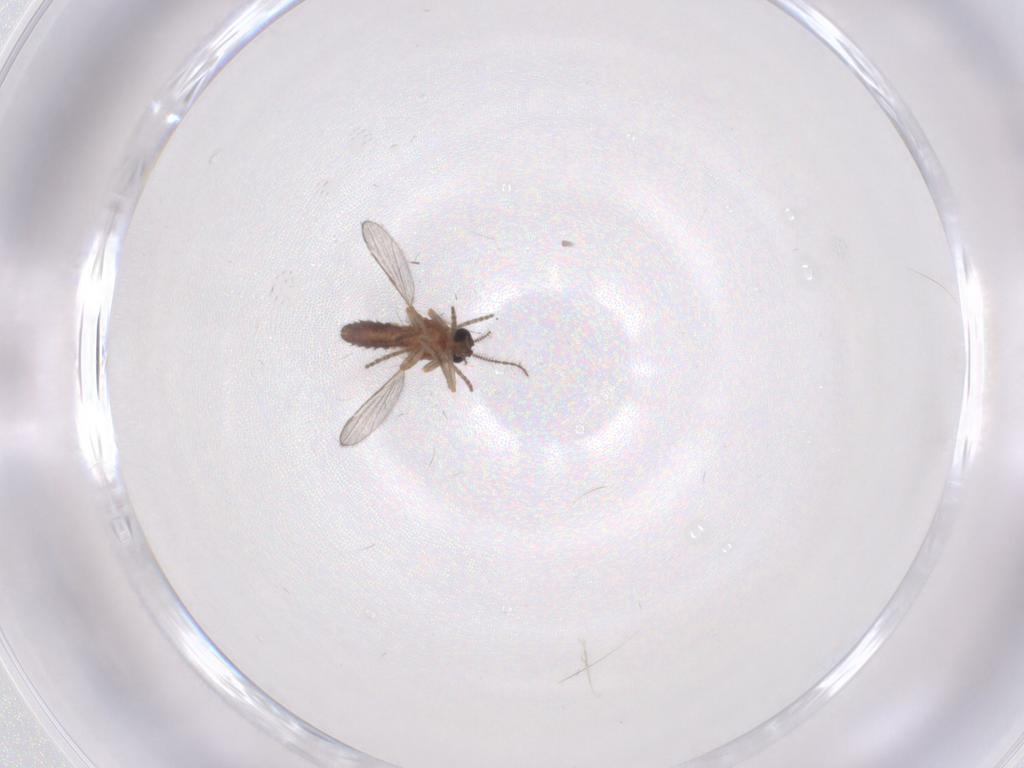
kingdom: Animalia
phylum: Arthropoda
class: Insecta
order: Diptera
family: Ceratopogonidae
